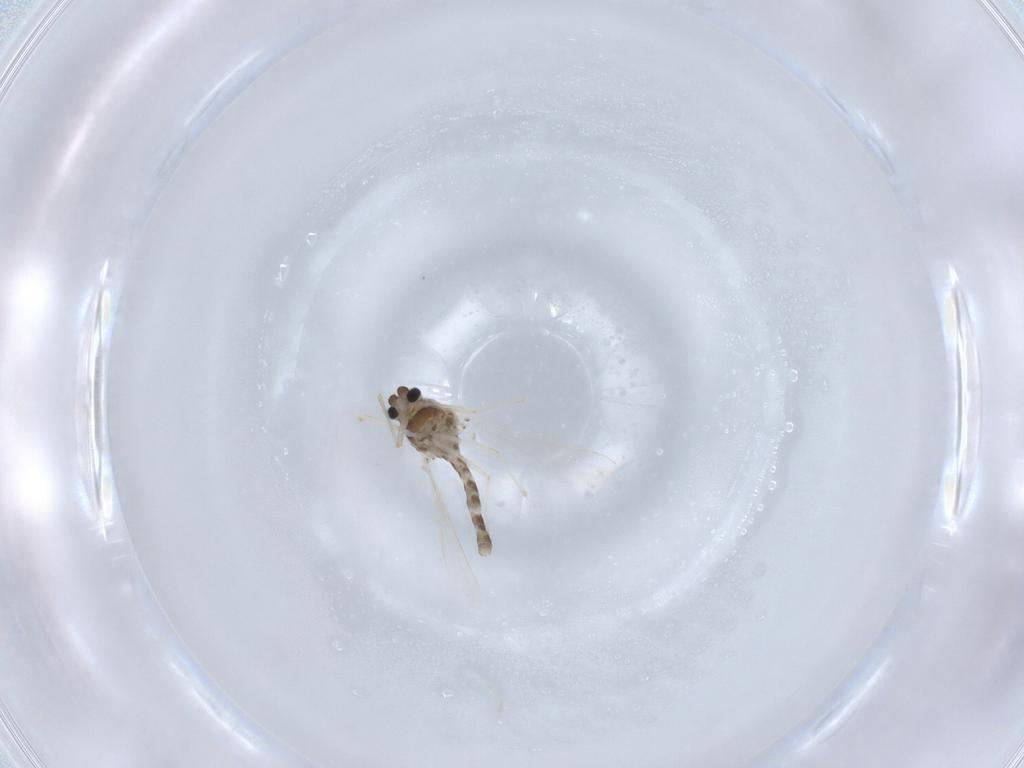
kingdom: Animalia
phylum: Arthropoda
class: Insecta
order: Diptera
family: Chironomidae
